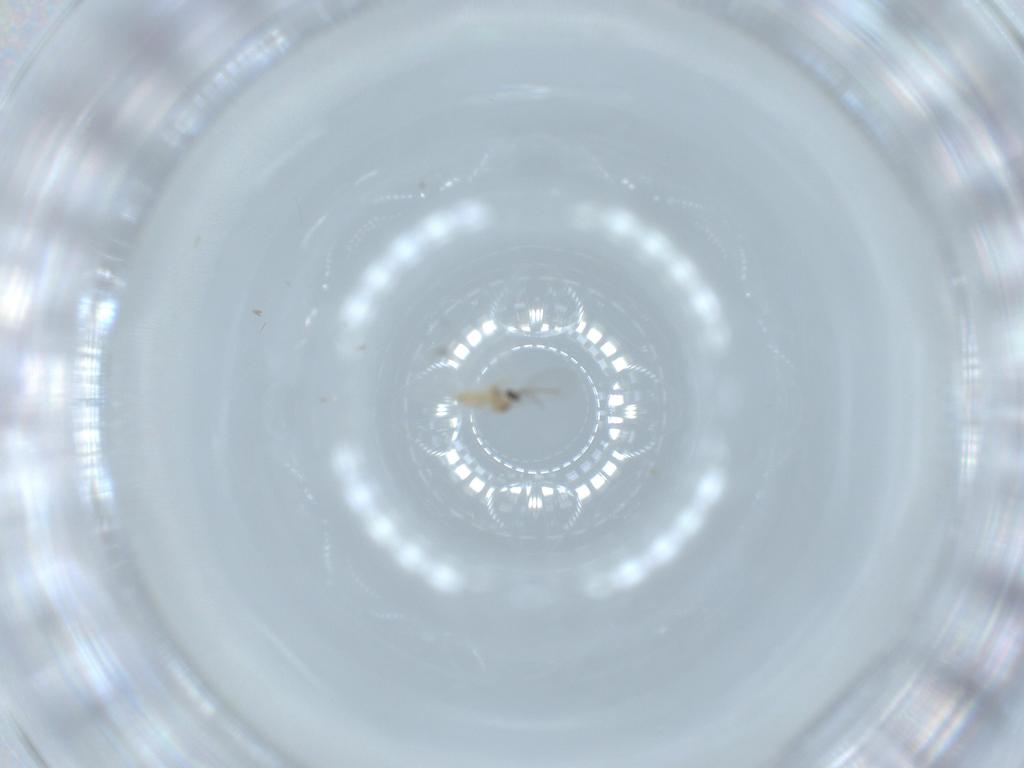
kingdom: Animalia
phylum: Arthropoda
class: Insecta
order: Diptera
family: Cecidomyiidae
